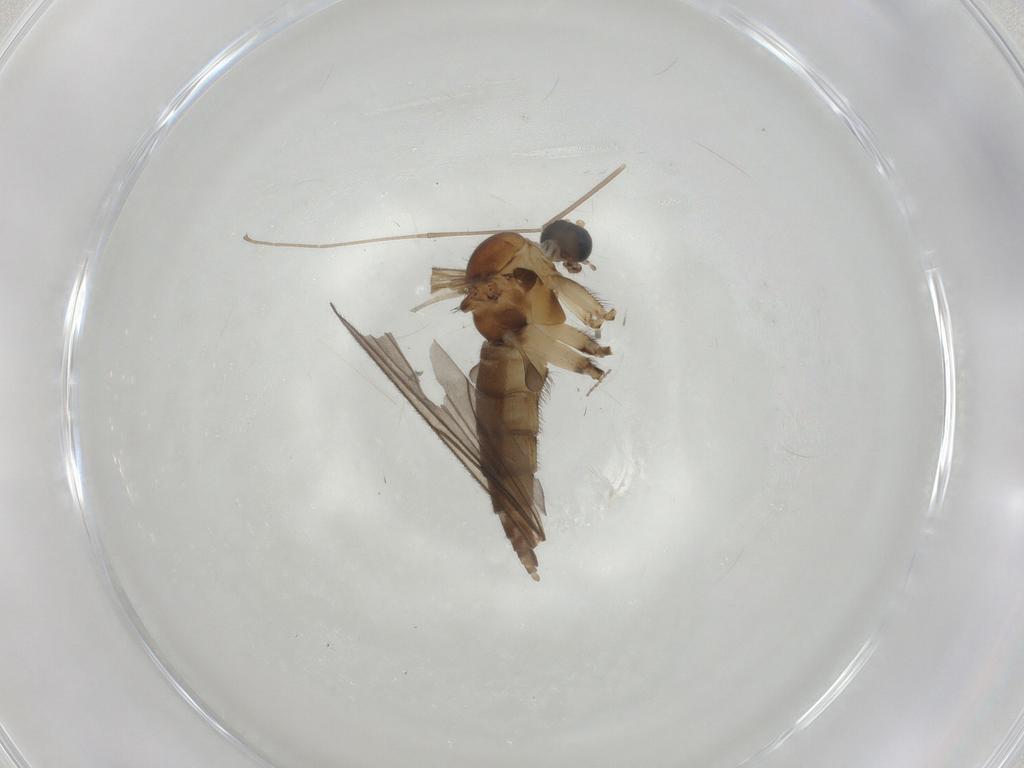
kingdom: Animalia
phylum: Arthropoda
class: Insecta
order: Diptera
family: Sciaridae
